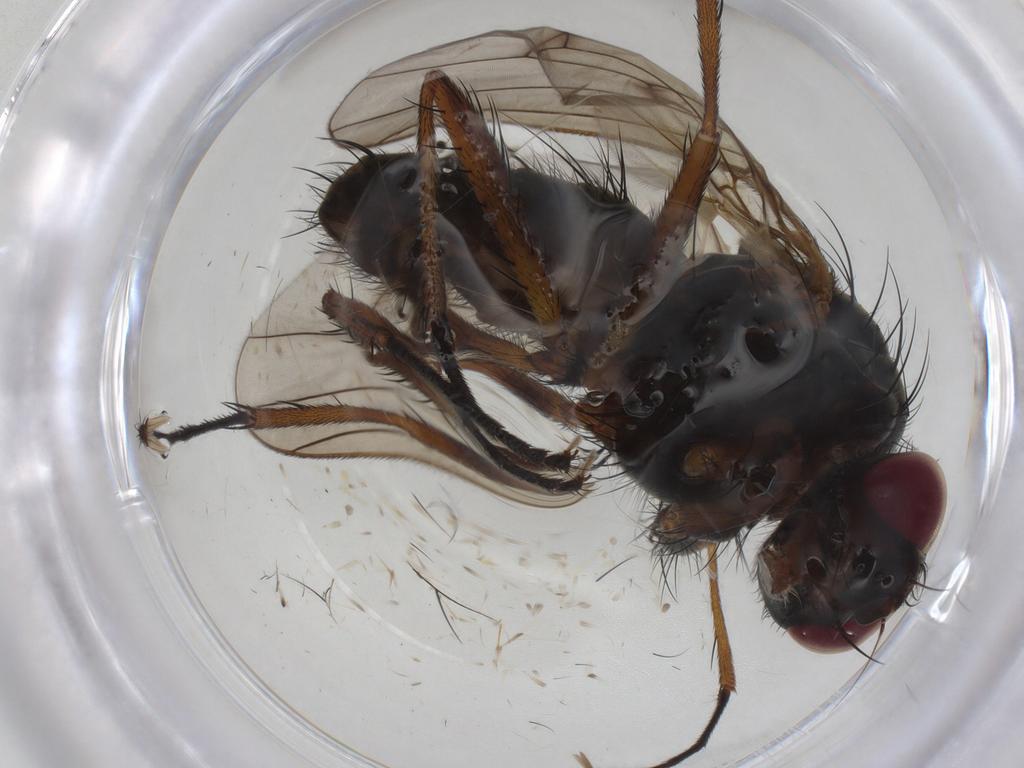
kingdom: Animalia
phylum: Arthropoda
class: Insecta
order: Diptera
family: Anthomyiidae
